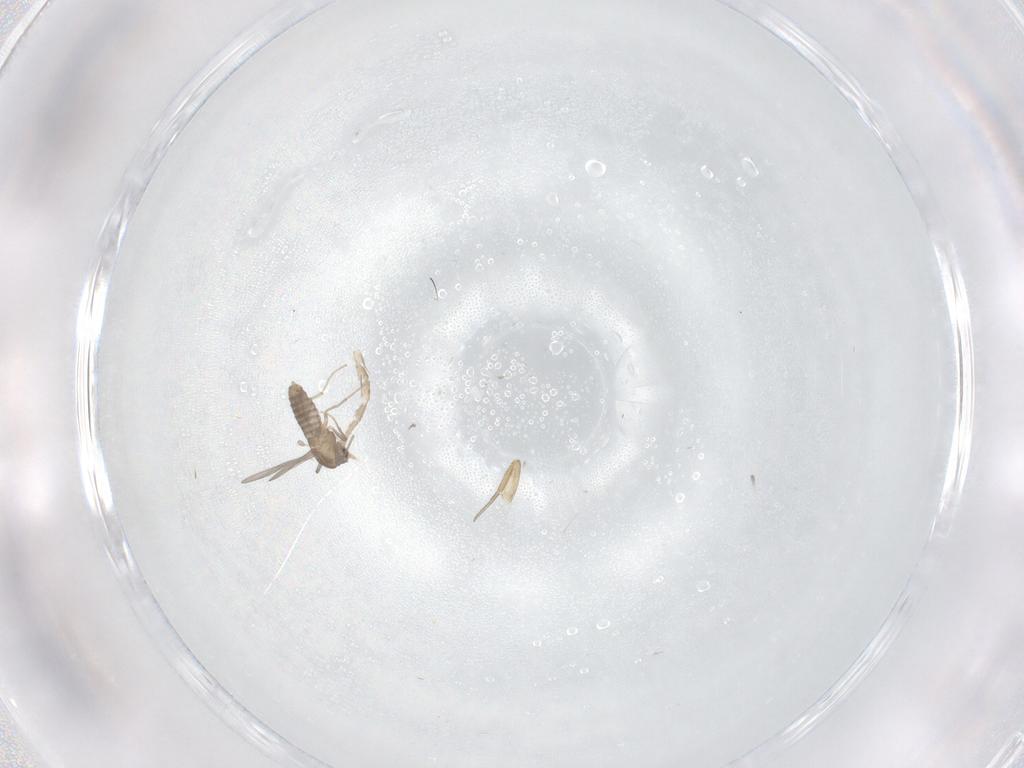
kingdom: Animalia
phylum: Arthropoda
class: Insecta
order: Diptera
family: Chironomidae
